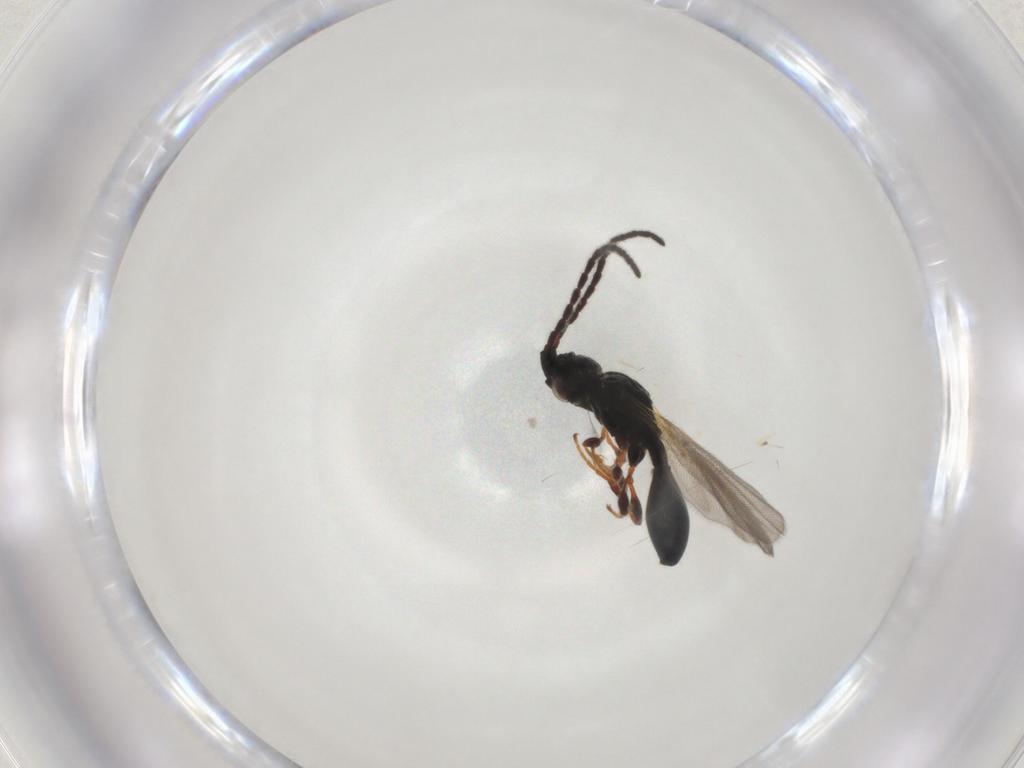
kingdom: Animalia
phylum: Arthropoda
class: Insecta
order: Hymenoptera
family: Diapriidae
